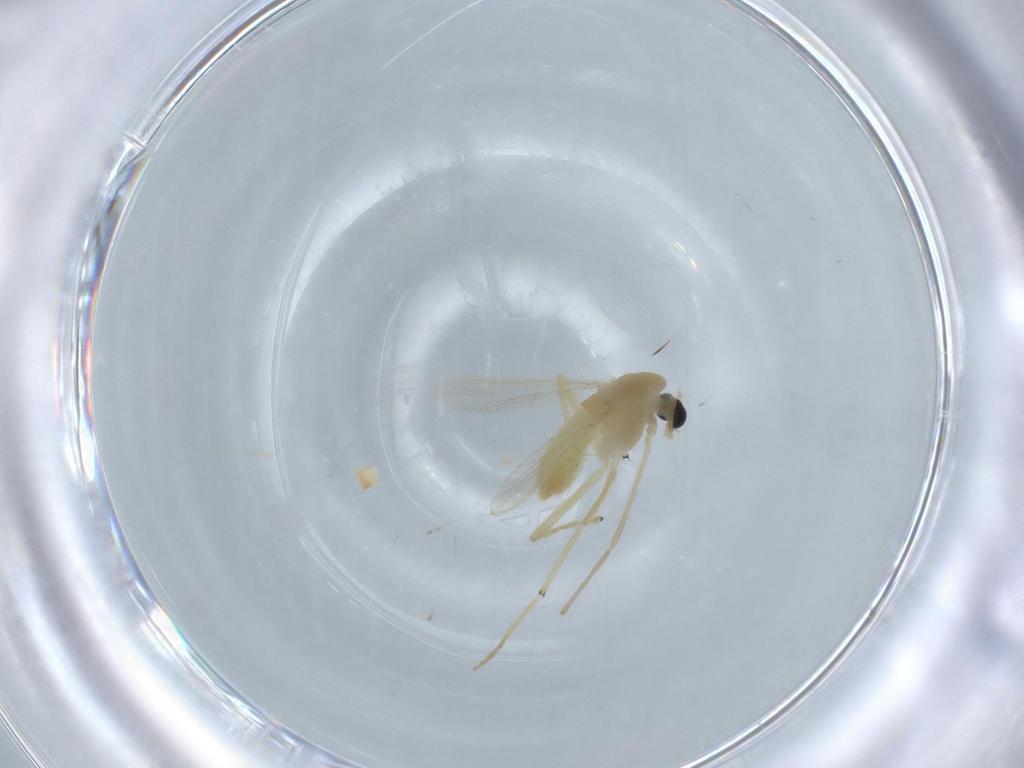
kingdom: Animalia
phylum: Arthropoda
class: Insecta
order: Diptera
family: Chironomidae
